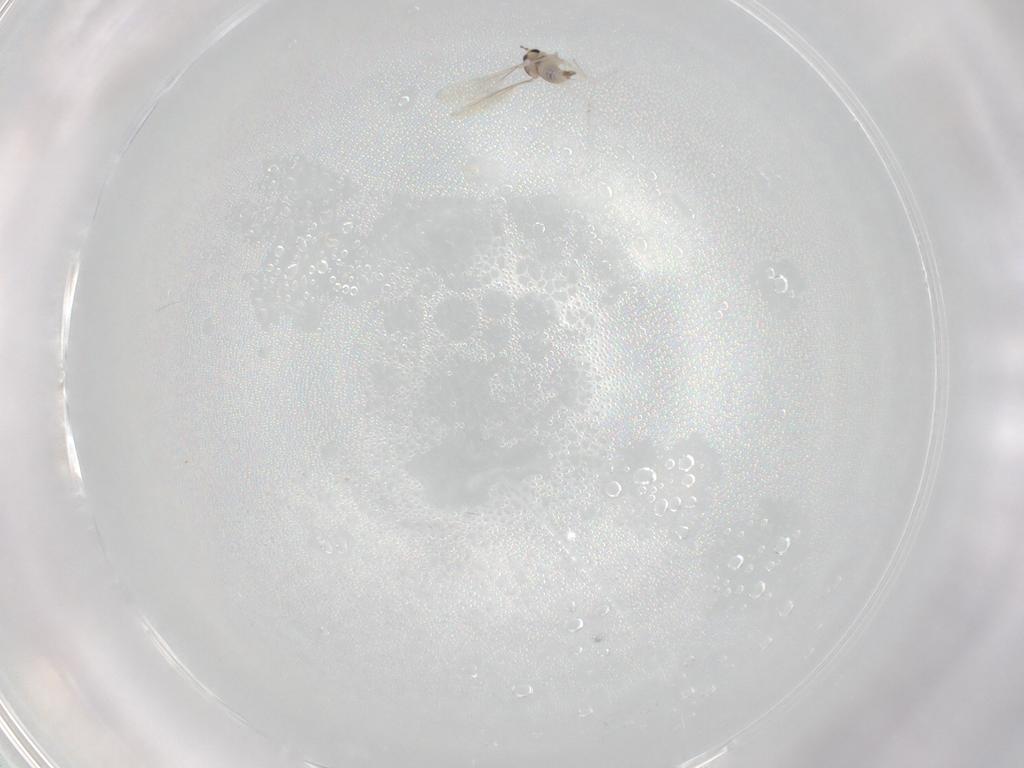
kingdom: Animalia
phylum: Arthropoda
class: Insecta
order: Diptera
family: Cecidomyiidae
